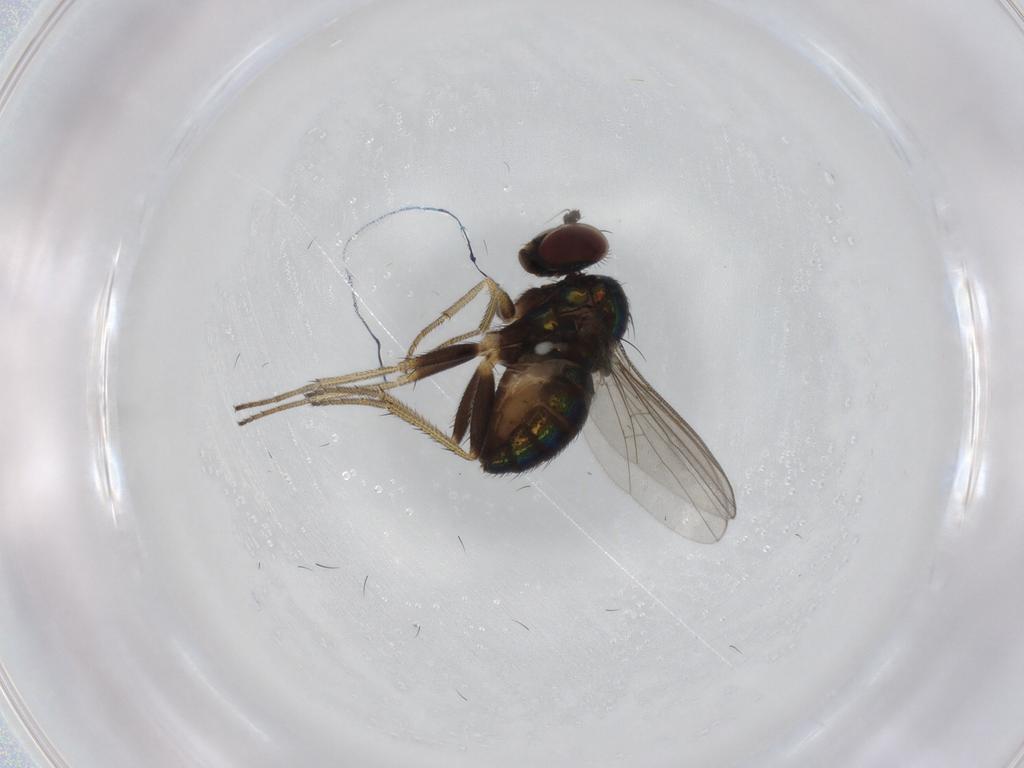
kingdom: Animalia
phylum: Arthropoda
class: Insecta
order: Diptera
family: Dolichopodidae
